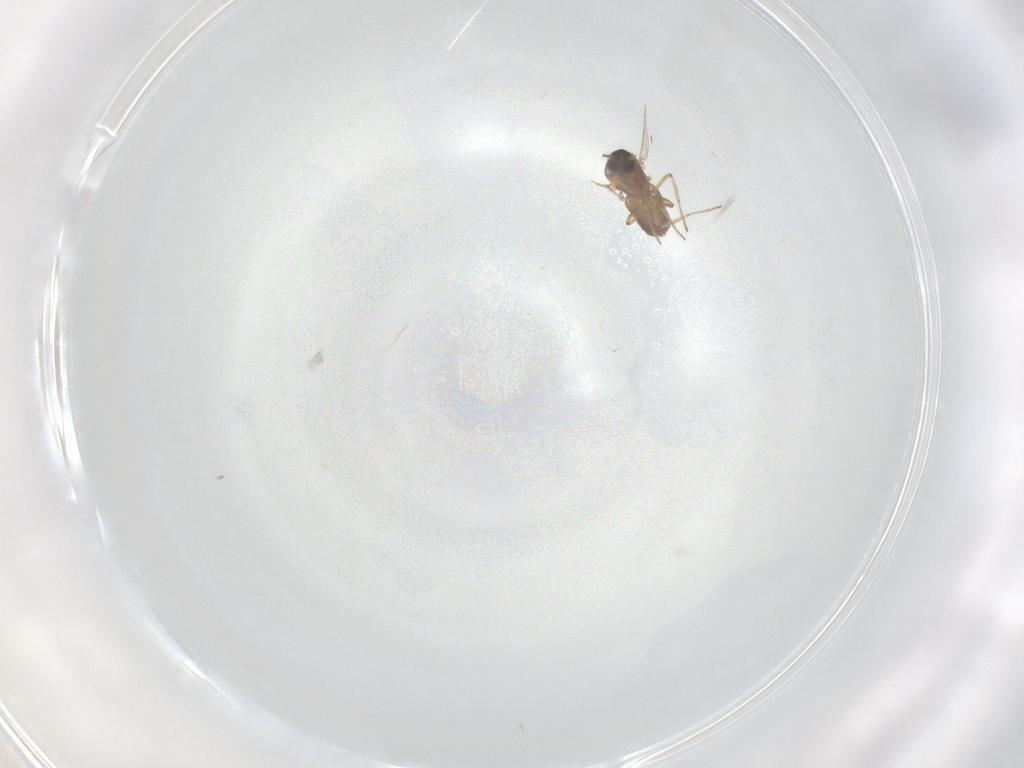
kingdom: Animalia
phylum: Arthropoda
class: Insecta
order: Diptera
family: Ceratopogonidae
